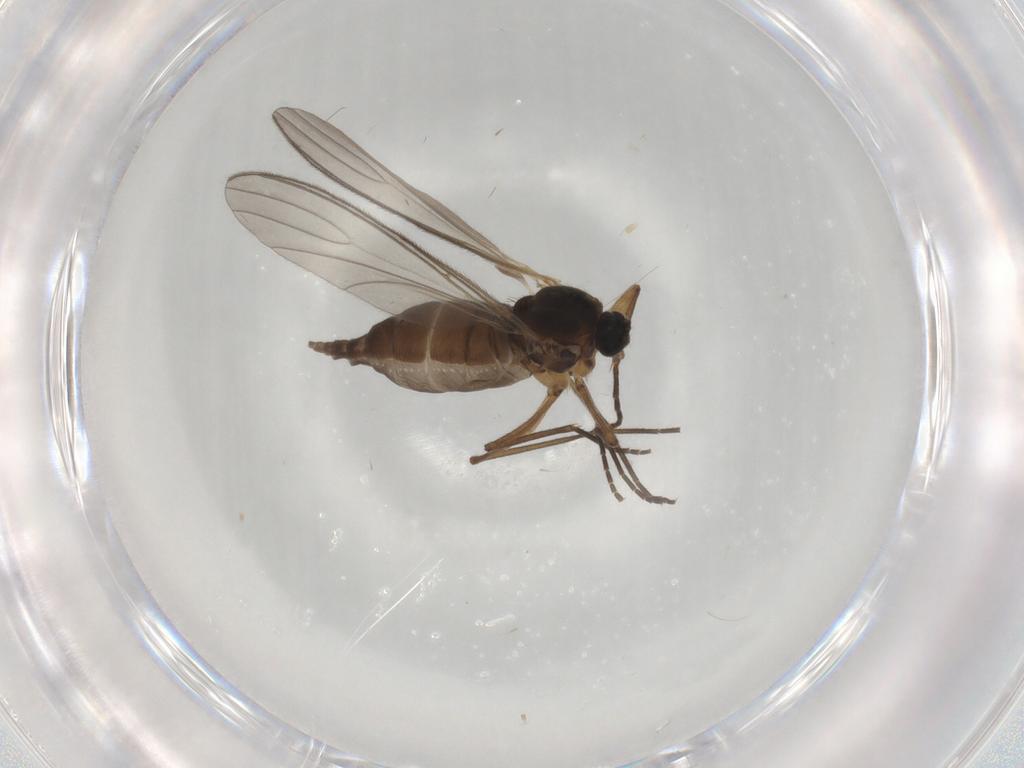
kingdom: Animalia
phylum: Arthropoda
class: Insecta
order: Diptera
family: Sciaridae
